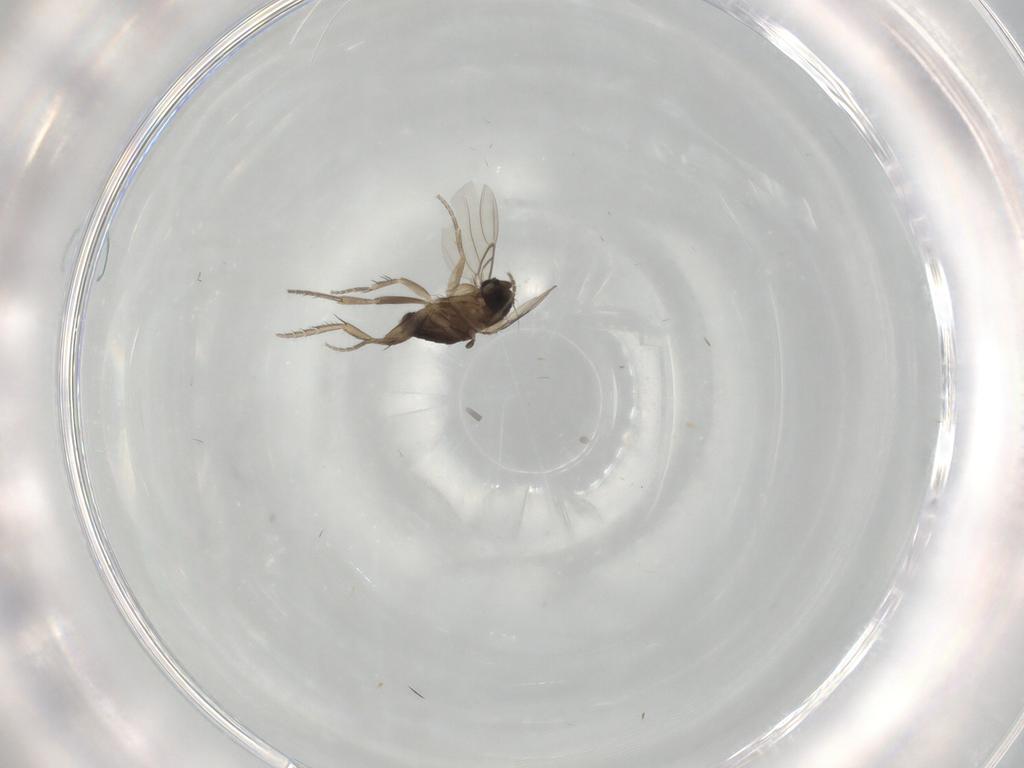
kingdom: Animalia
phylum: Arthropoda
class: Insecta
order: Diptera
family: Phoridae
